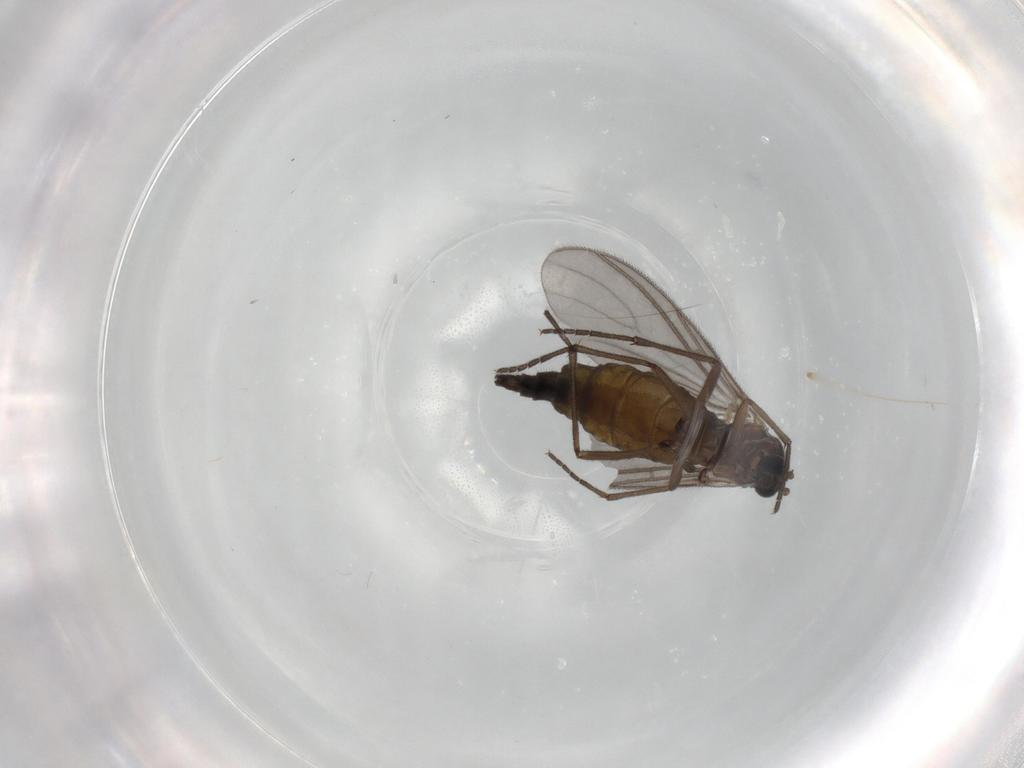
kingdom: Animalia
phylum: Arthropoda
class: Insecta
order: Diptera
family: Sciaridae
